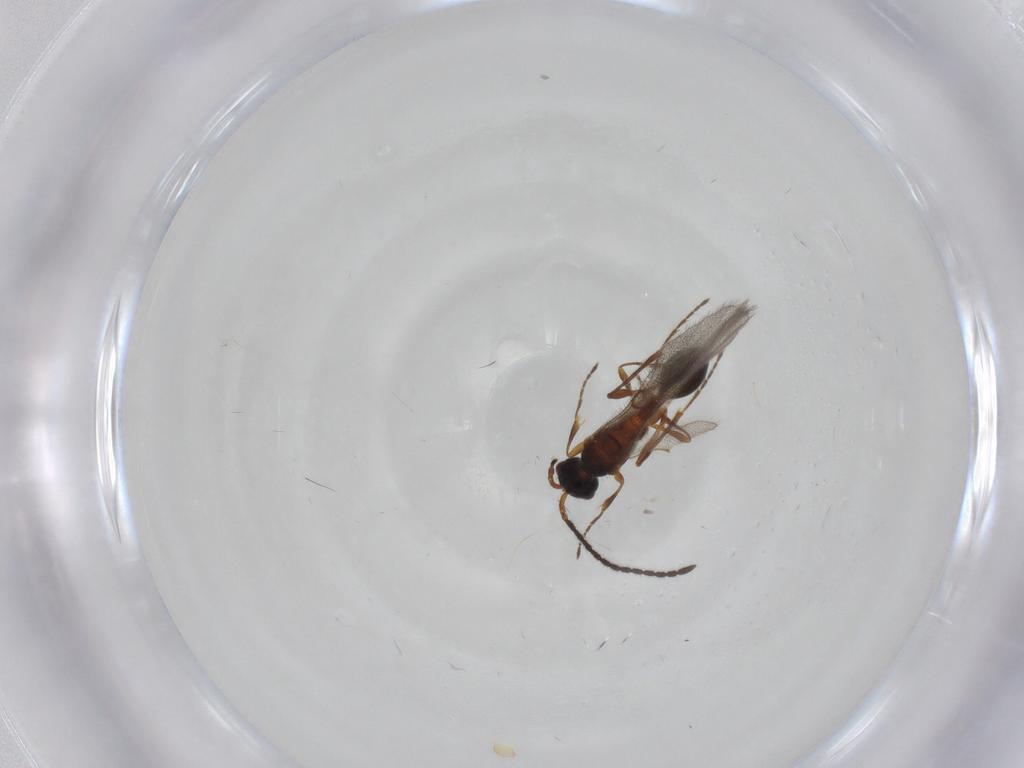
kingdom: Animalia
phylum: Arthropoda
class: Insecta
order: Hymenoptera
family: Diapriidae
